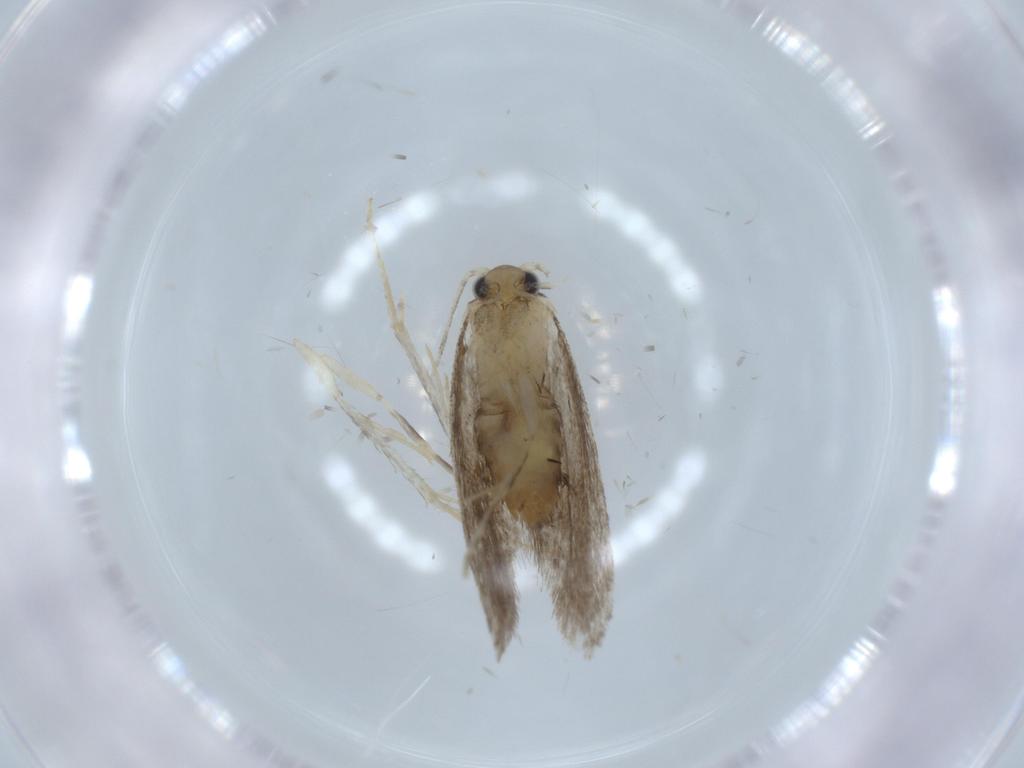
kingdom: Animalia
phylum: Arthropoda
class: Insecta
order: Lepidoptera
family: Tineidae
